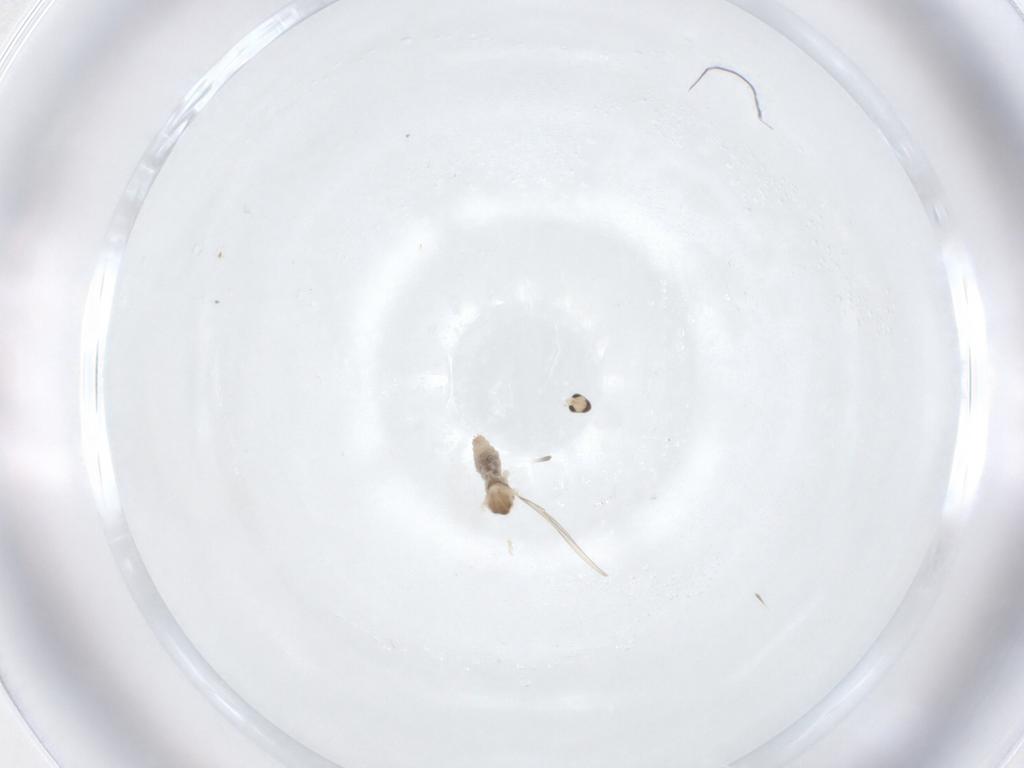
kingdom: Animalia
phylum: Arthropoda
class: Insecta
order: Diptera
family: Cecidomyiidae
